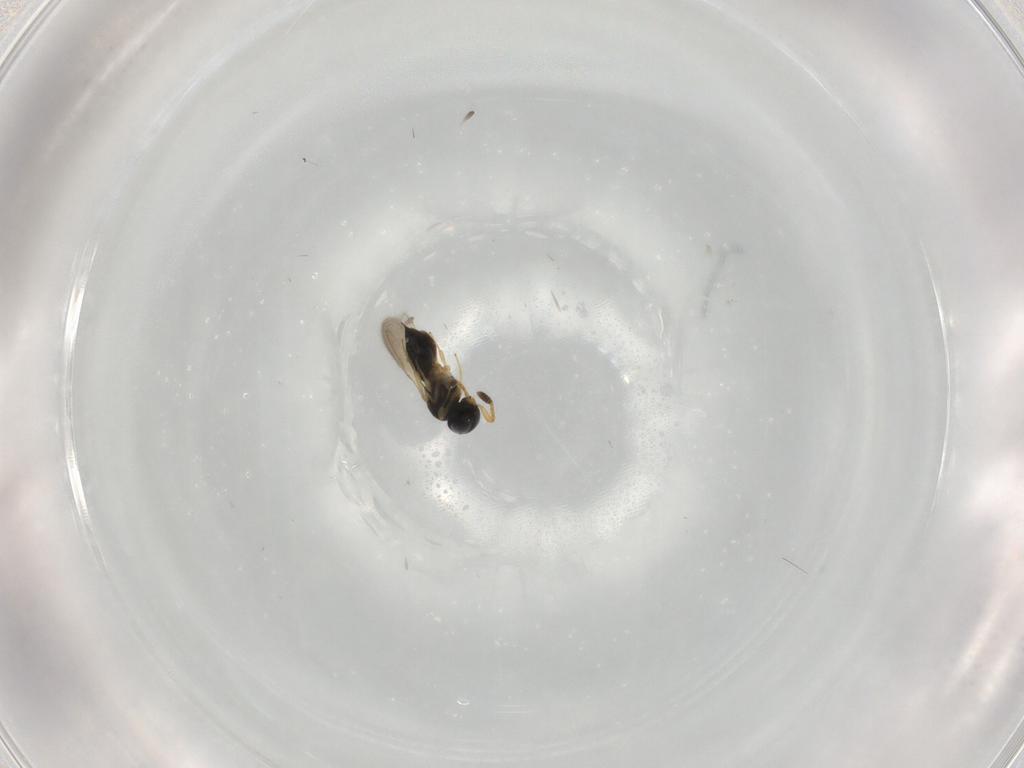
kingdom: Animalia
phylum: Arthropoda
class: Insecta
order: Hymenoptera
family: Scelionidae
